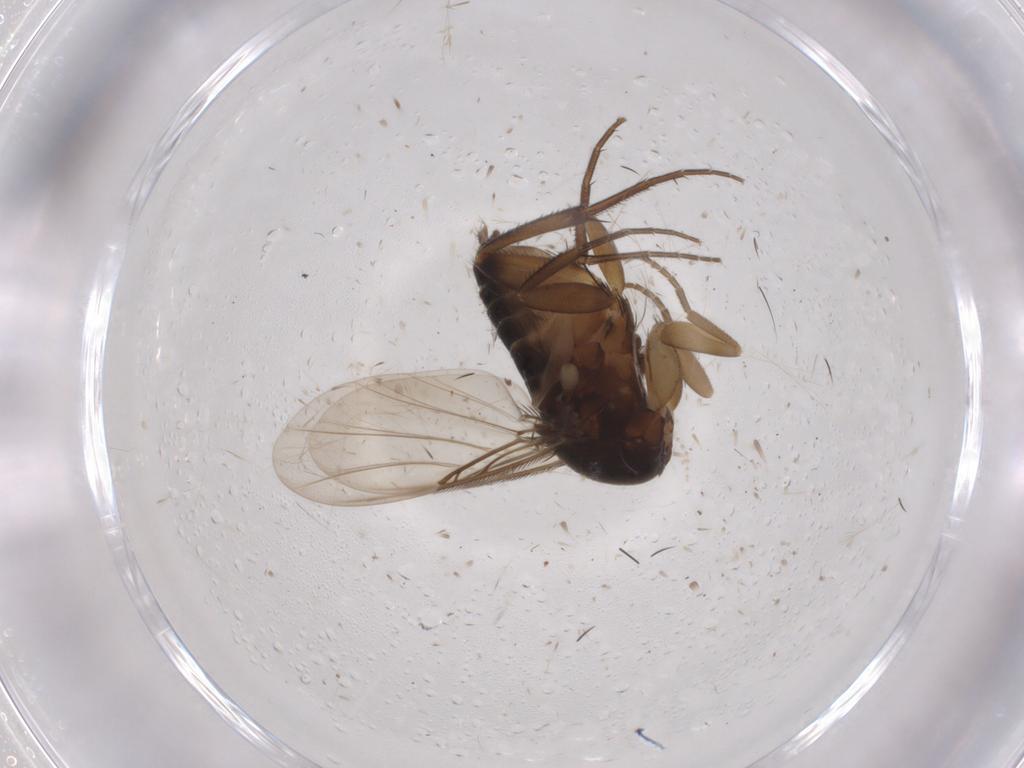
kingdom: Animalia
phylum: Arthropoda
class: Insecta
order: Diptera
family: Phoridae
